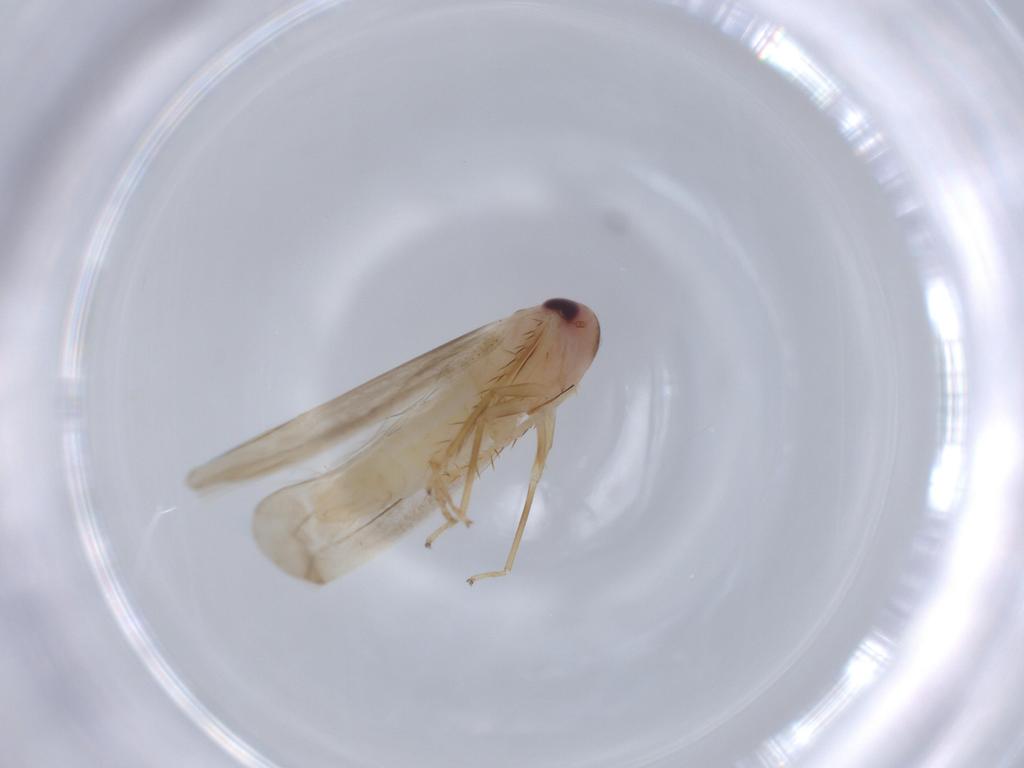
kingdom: Animalia
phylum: Arthropoda
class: Insecta
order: Hemiptera
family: Cicadellidae
